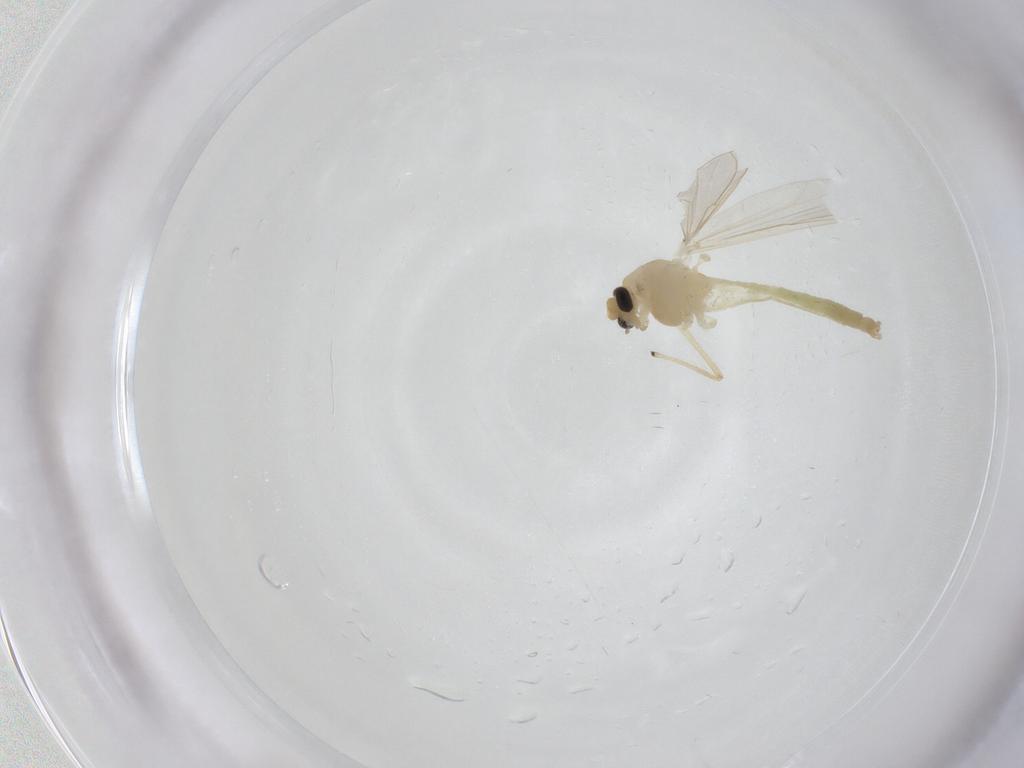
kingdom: Animalia
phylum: Arthropoda
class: Insecta
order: Diptera
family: Chironomidae
